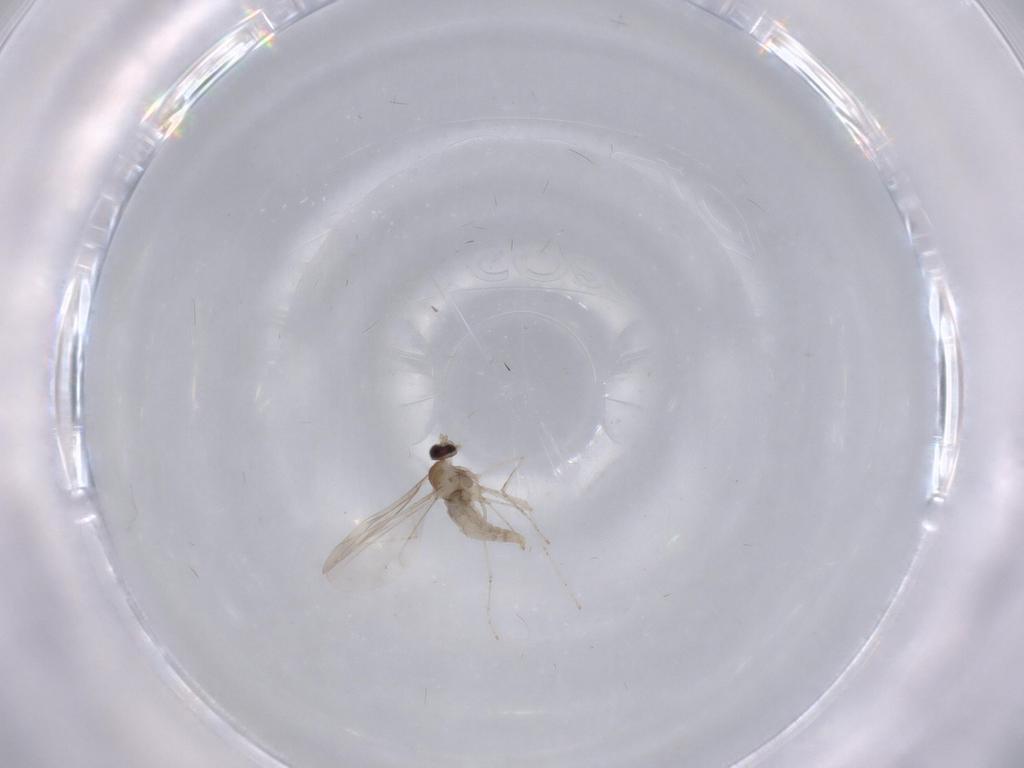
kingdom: Animalia
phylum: Arthropoda
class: Insecta
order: Diptera
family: Cecidomyiidae
